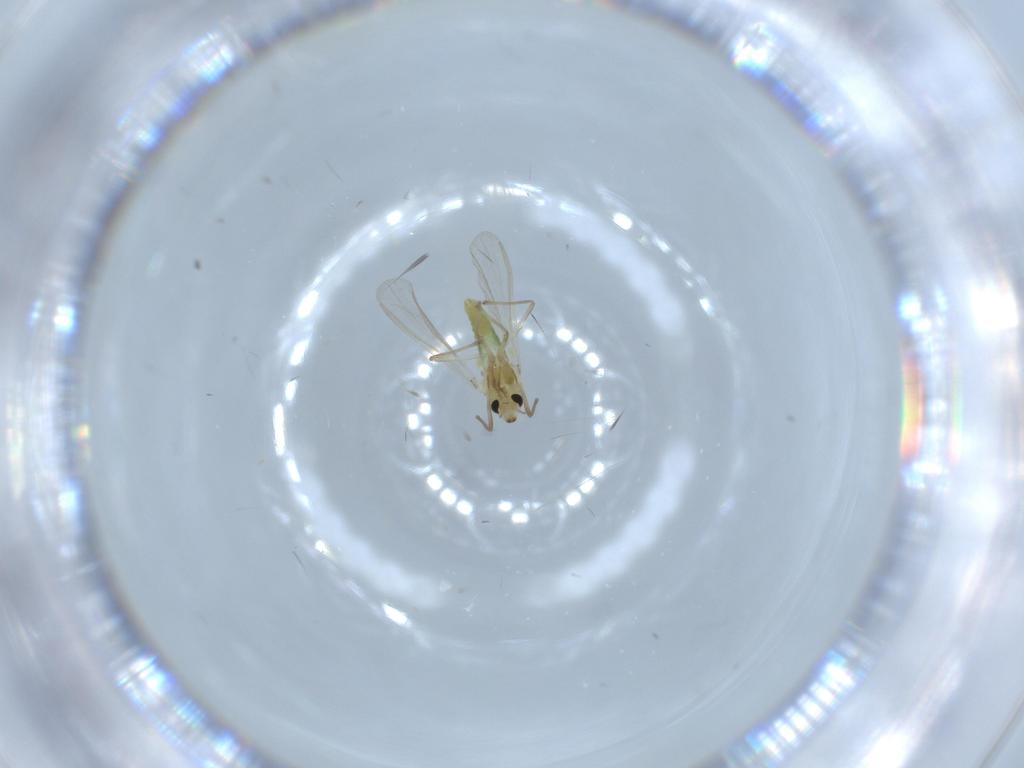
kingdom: Animalia
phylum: Arthropoda
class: Insecta
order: Diptera
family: Chironomidae
